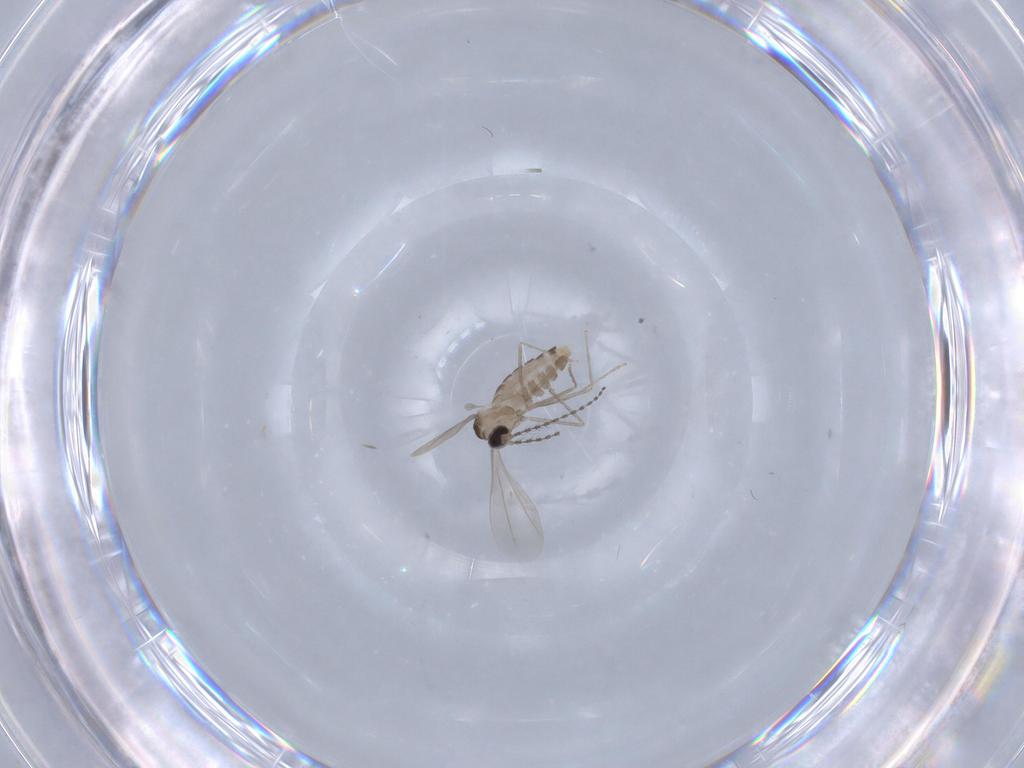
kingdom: Animalia
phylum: Arthropoda
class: Insecta
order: Diptera
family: Cecidomyiidae
